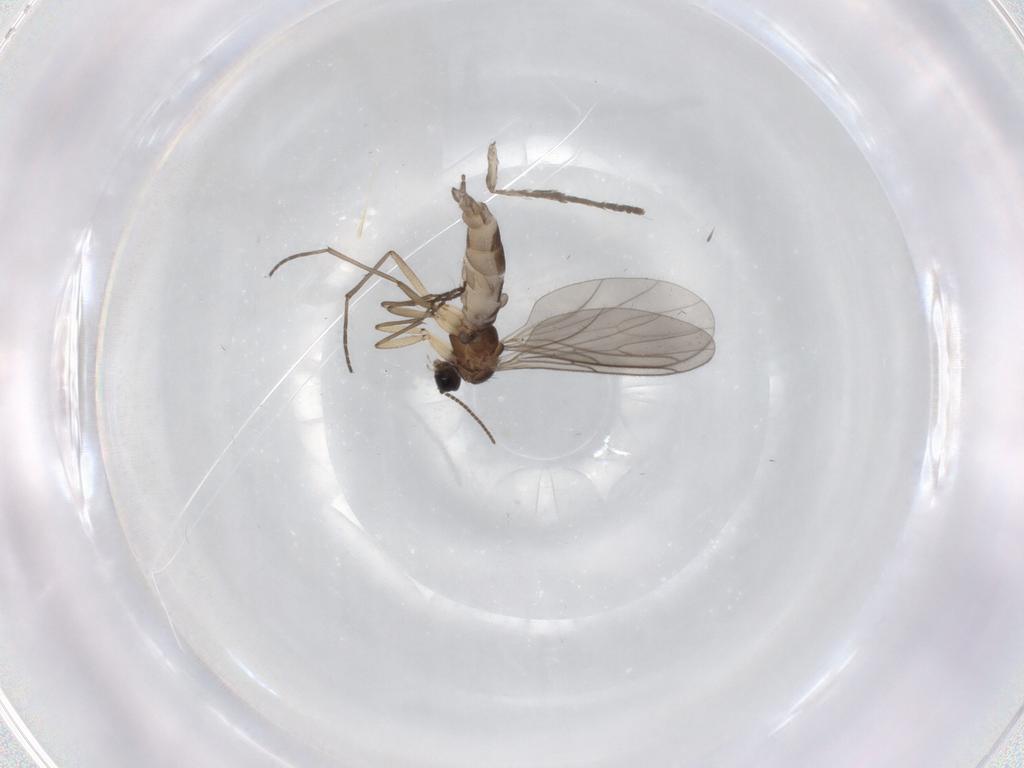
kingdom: Animalia
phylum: Arthropoda
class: Insecta
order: Diptera
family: Sciaridae
